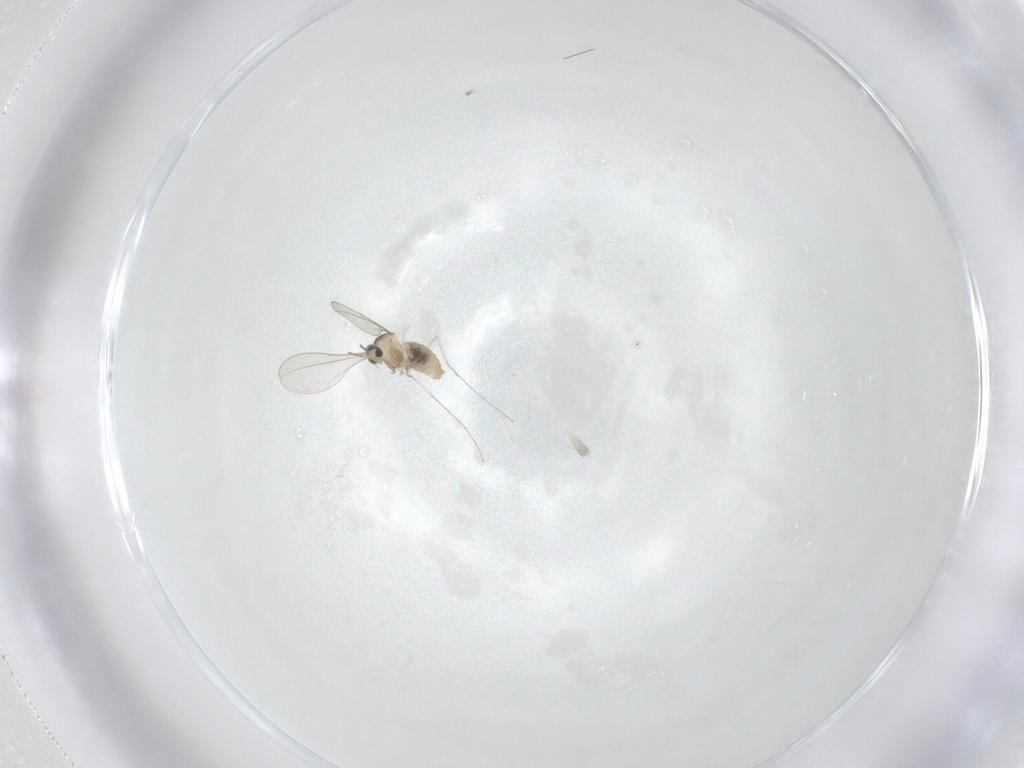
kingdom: Animalia
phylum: Arthropoda
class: Insecta
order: Diptera
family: Cecidomyiidae
